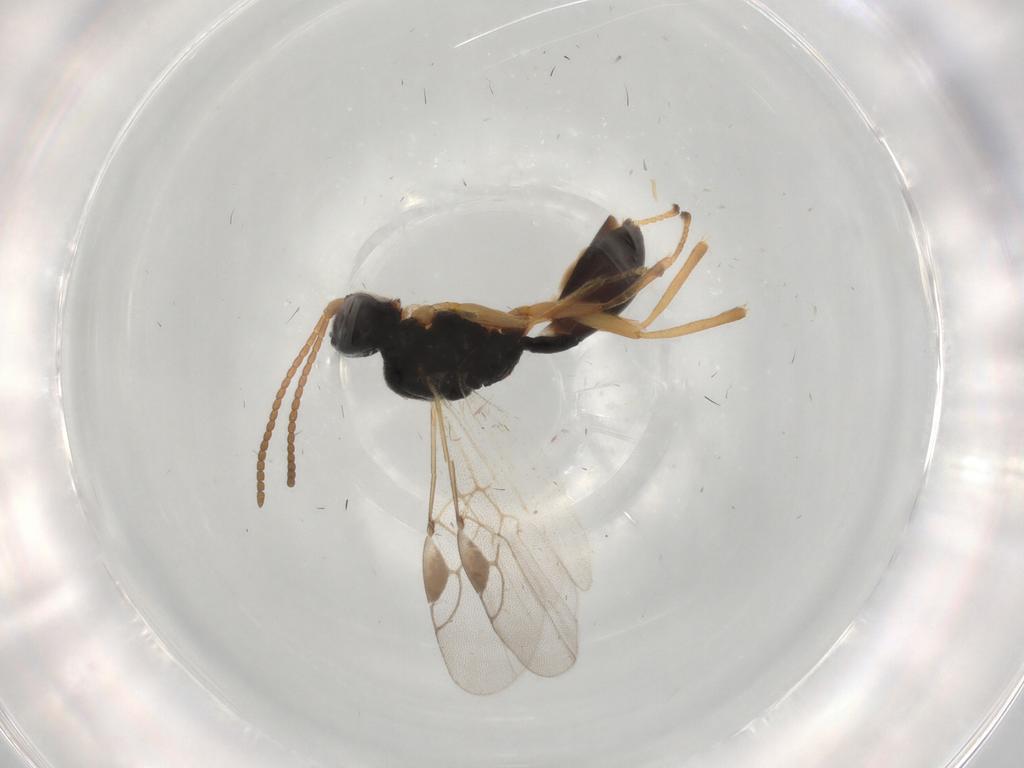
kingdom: Animalia
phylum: Arthropoda
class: Insecta
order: Hymenoptera
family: Braconidae
